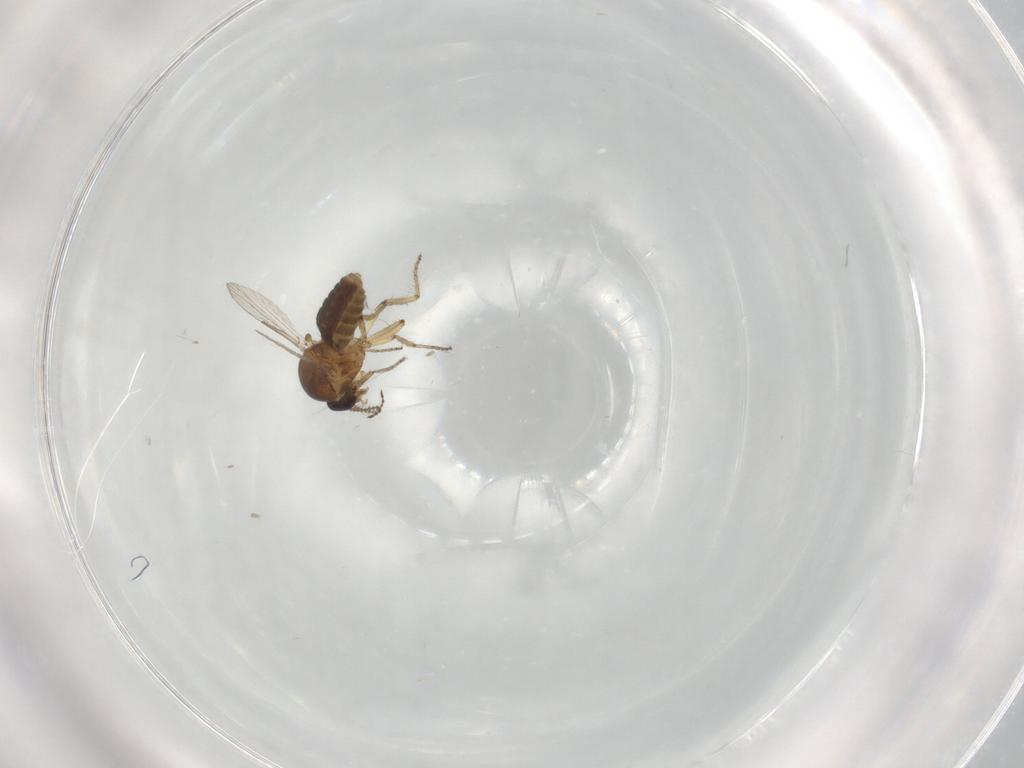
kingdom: Animalia
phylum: Arthropoda
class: Insecta
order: Diptera
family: Ceratopogonidae
